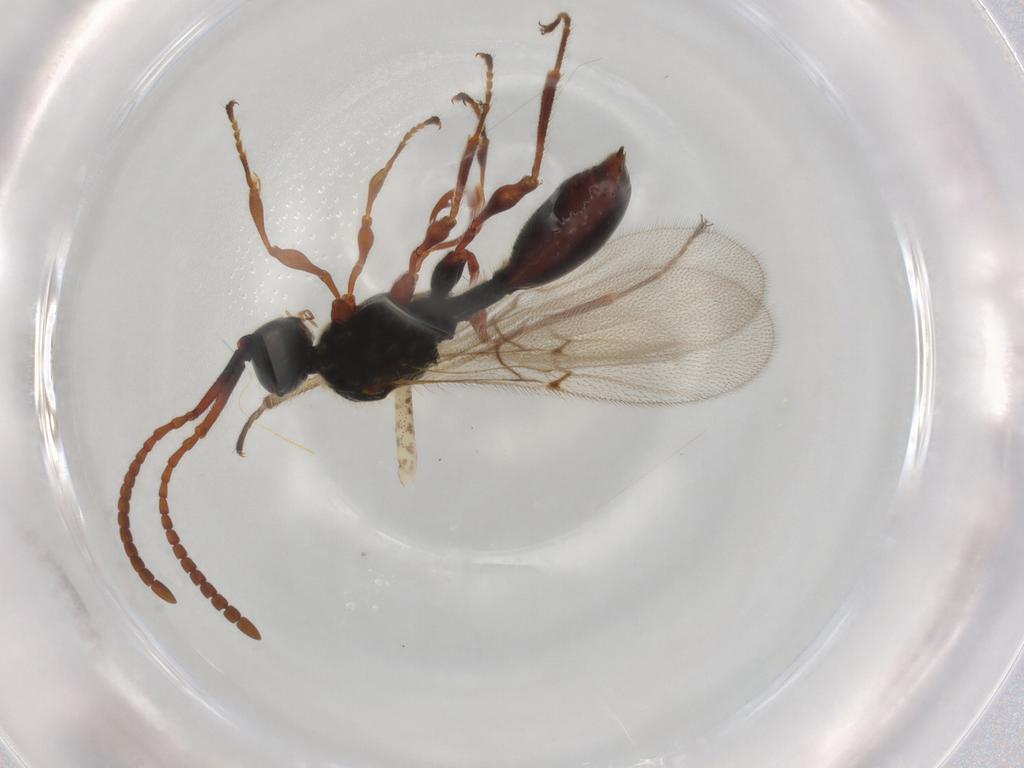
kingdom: Animalia
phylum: Arthropoda
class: Insecta
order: Hymenoptera
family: Diapriidae
